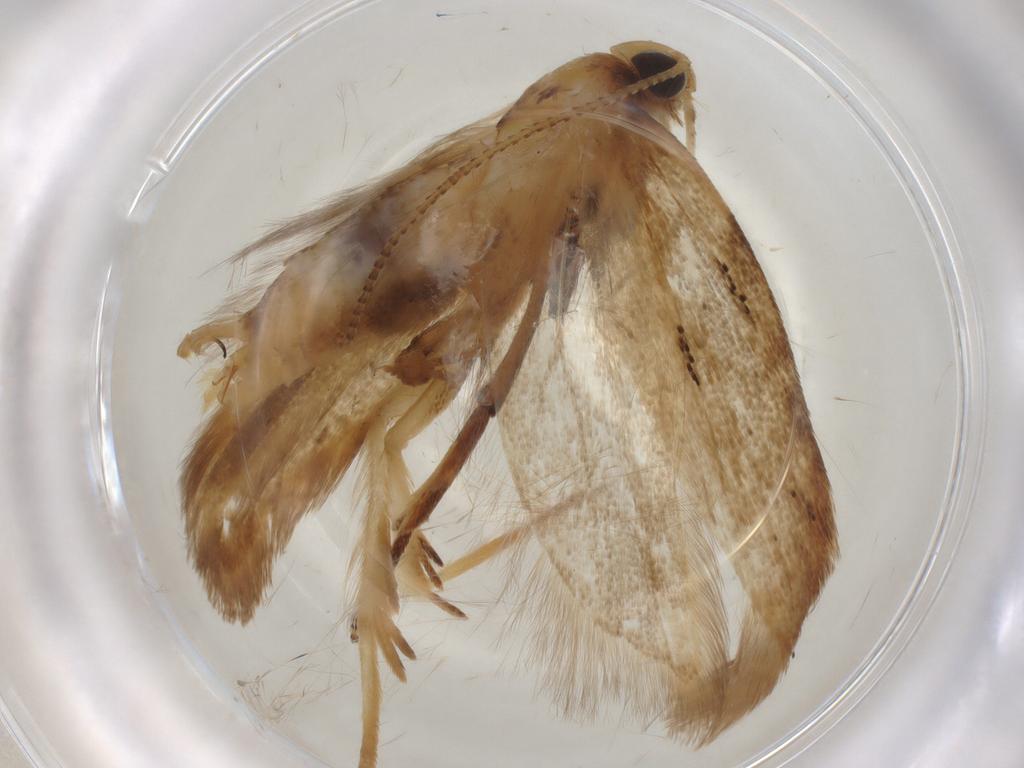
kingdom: Animalia
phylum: Arthropoda
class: Insecta
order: Lepidoptera
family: Gelechiidae
